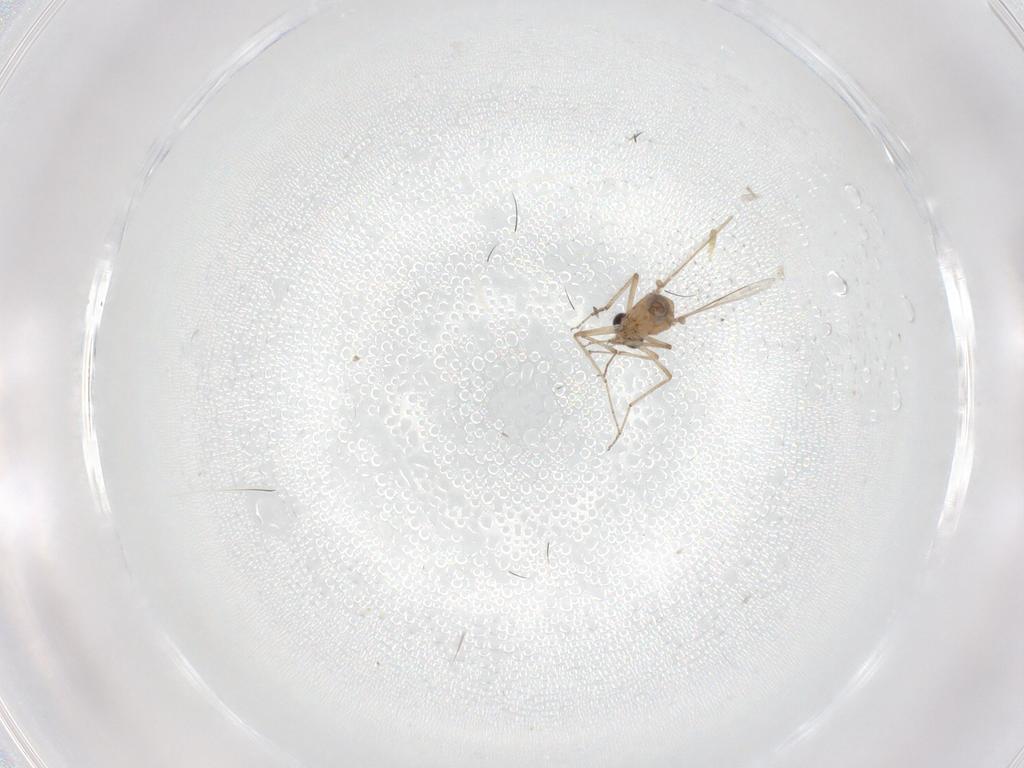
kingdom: Animalia
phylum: Arthropoda
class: Insecta
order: Diptera
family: Cecidomyiidae
